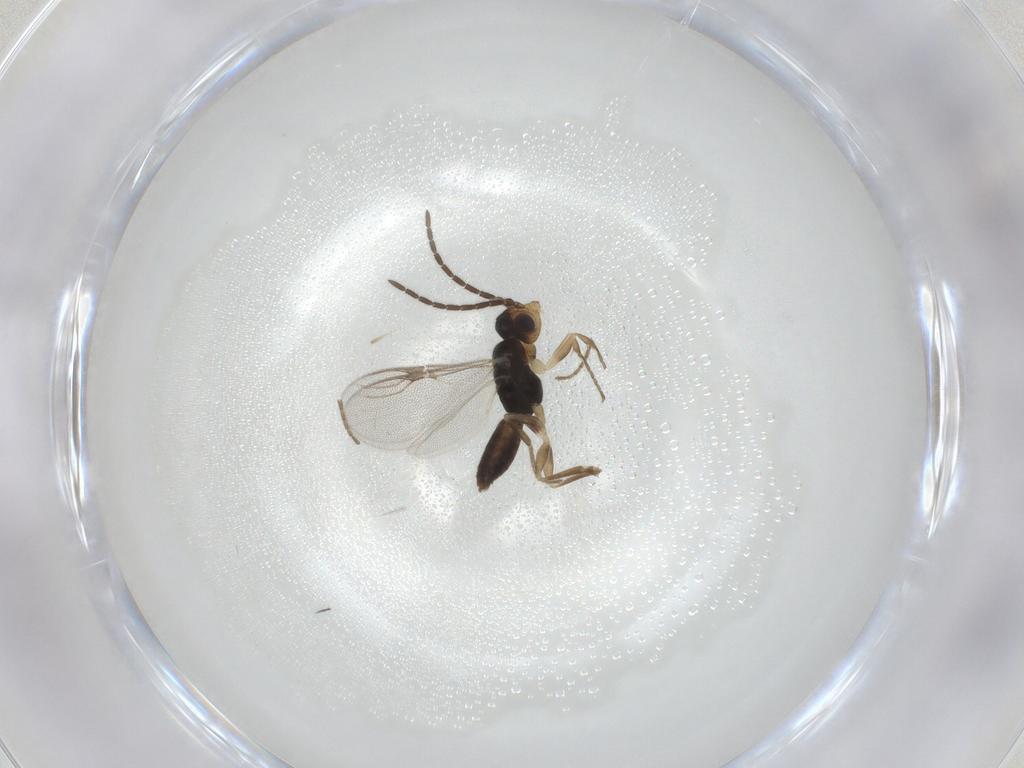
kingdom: Animalia
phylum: Arthropoda
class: Insecta
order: Hymenoptera
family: Dryinidae
